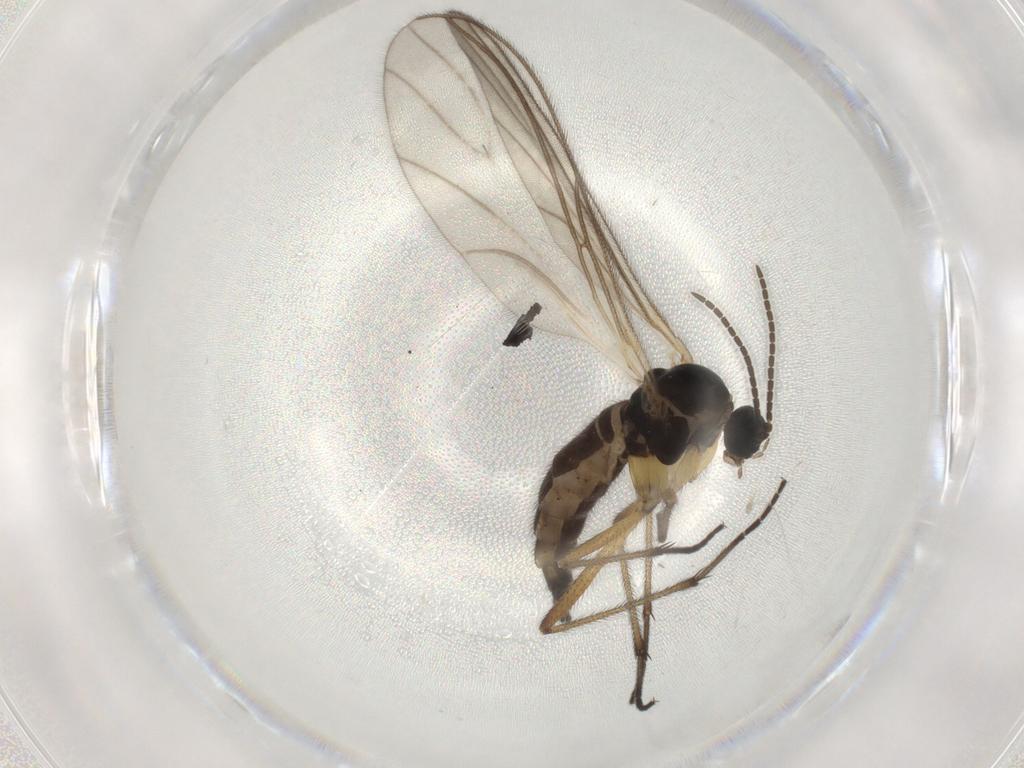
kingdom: Animalia
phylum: Arthropoda
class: Insecta
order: Diptera
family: Sciaridae
